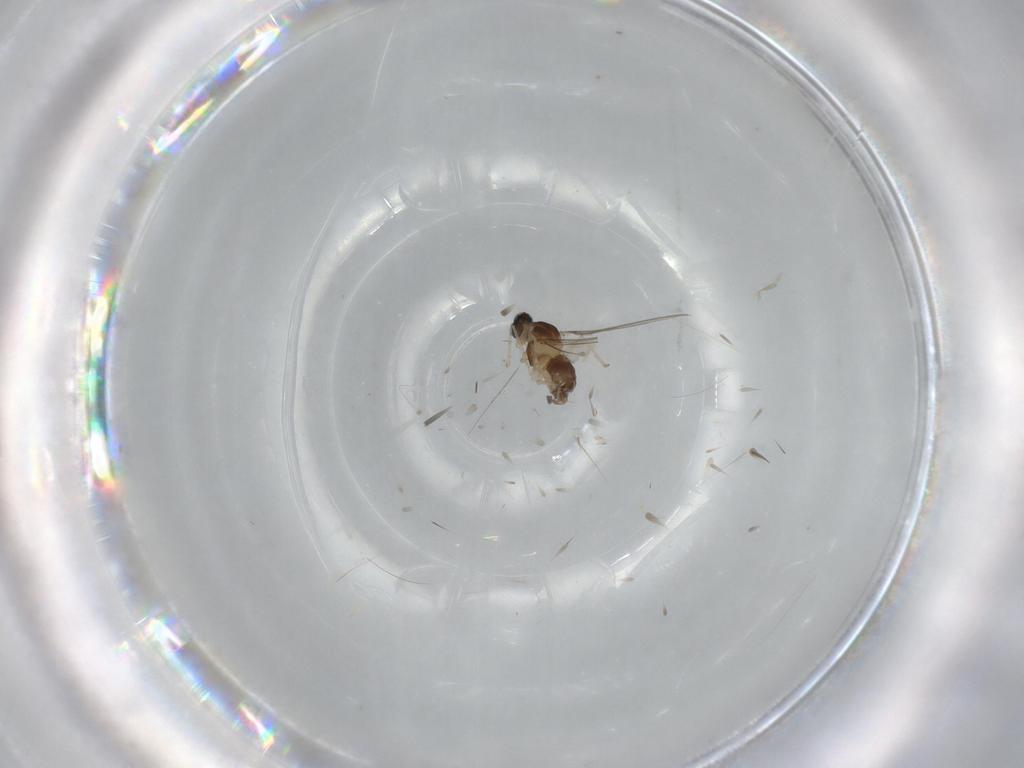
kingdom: Animalia
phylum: Arthropoda
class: Insecta
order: Diptera
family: Cecidomyiidae
